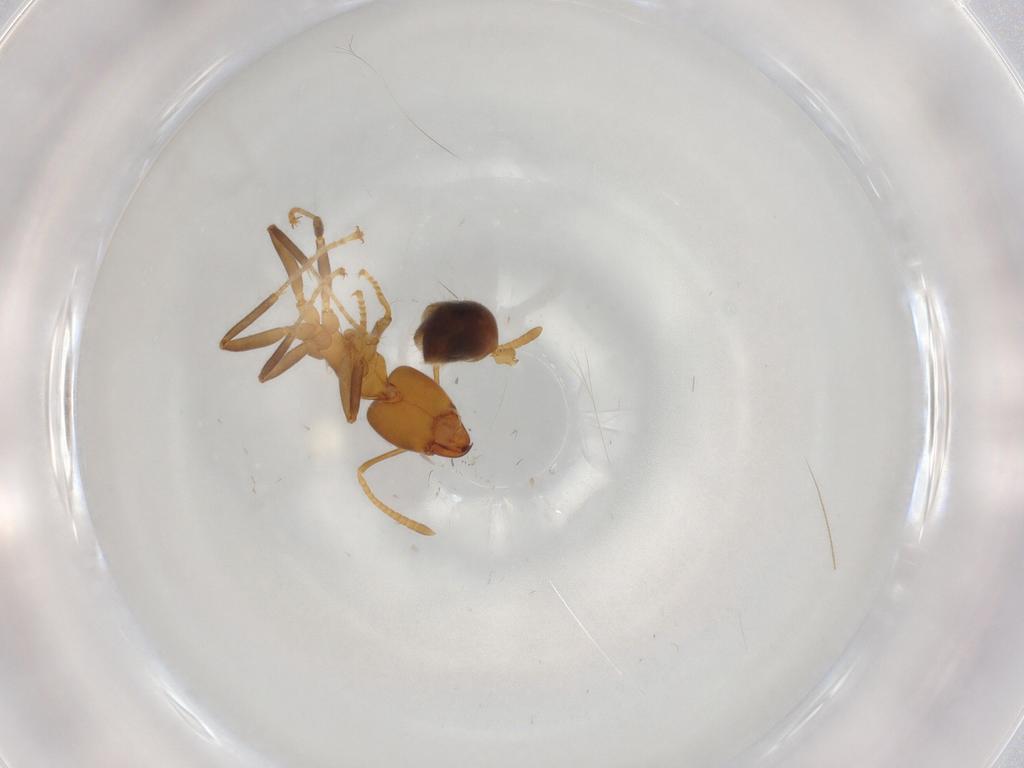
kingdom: Animalia
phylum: Arthropoda
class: Insecta
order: Hymenoptera
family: Formicidae
